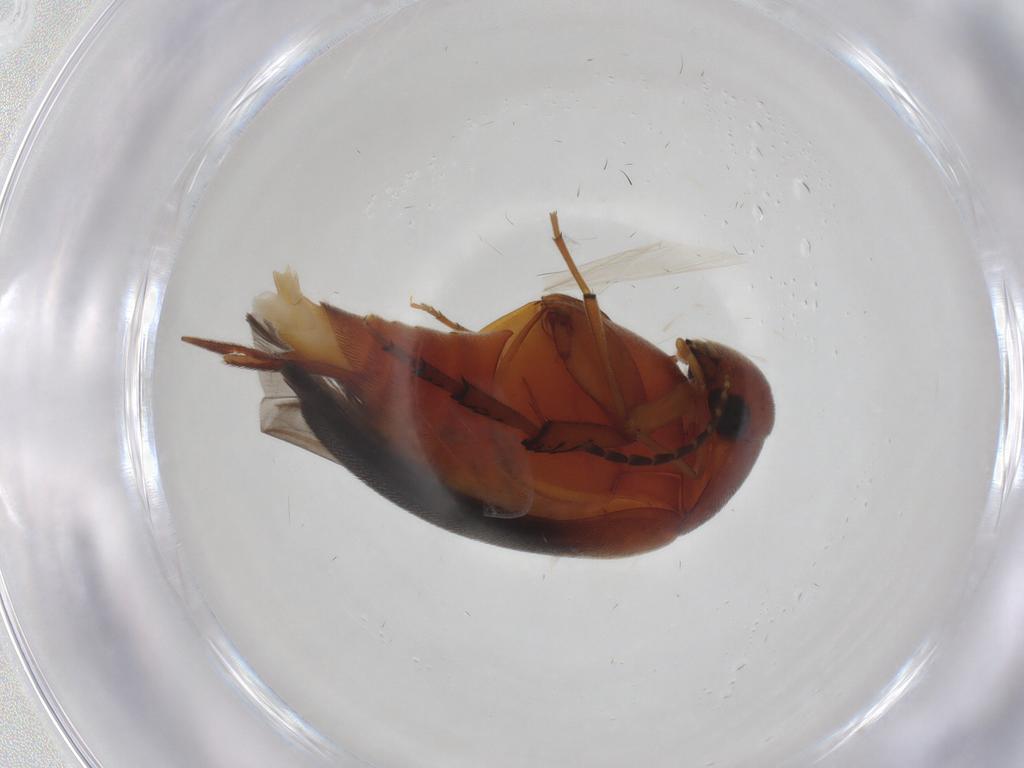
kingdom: Animalia
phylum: Arthropoda
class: Insecta
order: Coleoptera
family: Mordellidae
